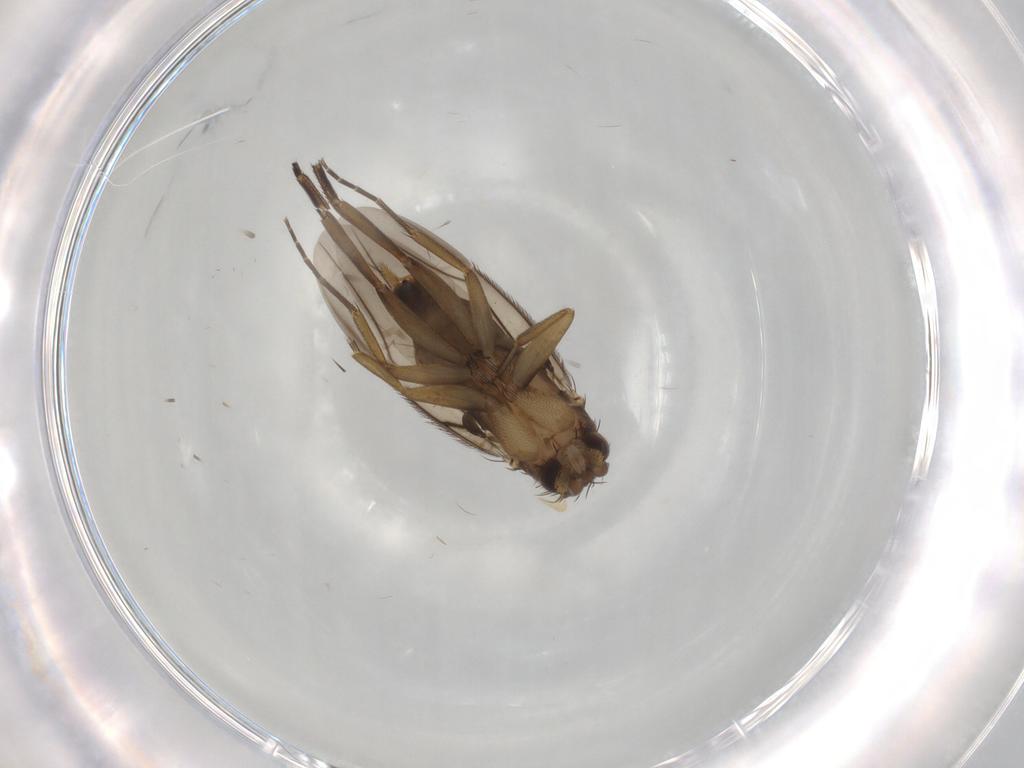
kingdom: Animalia
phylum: Arthropoda
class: Insecta
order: Diptera
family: Phoridae
